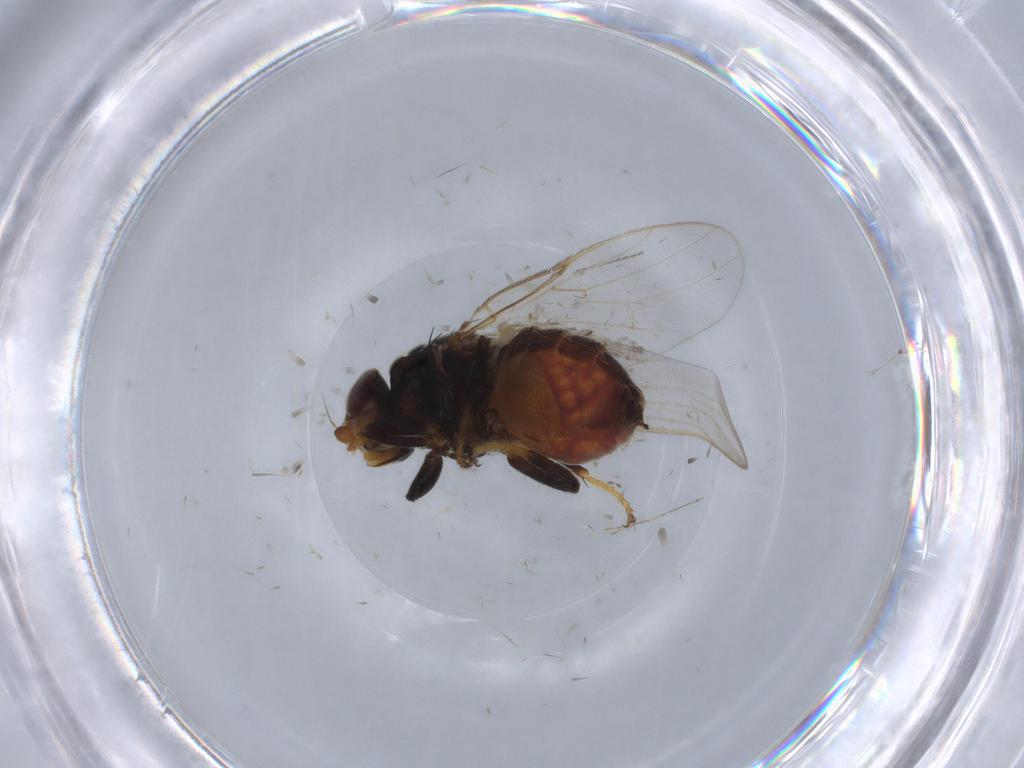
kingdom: Animalia
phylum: Arthropoda
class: Insecta
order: Diptera
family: Chloropidae
